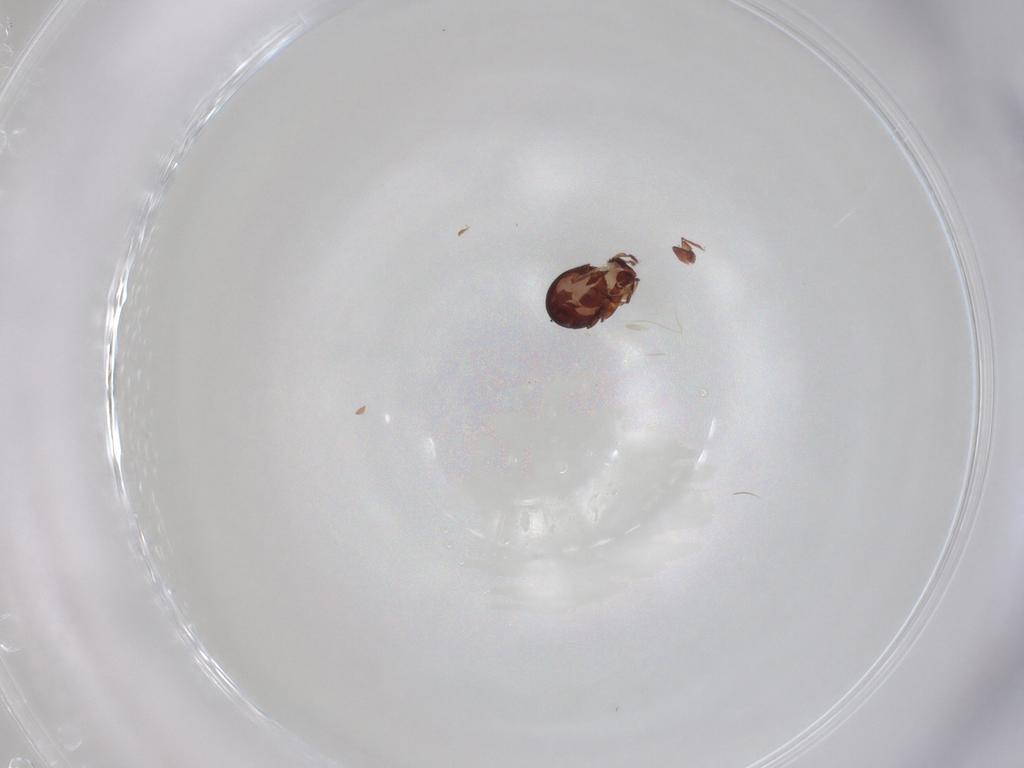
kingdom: Animalia
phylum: Arthropoda
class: Arachnida
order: Sarcoptiformes
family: Humerobatidae
